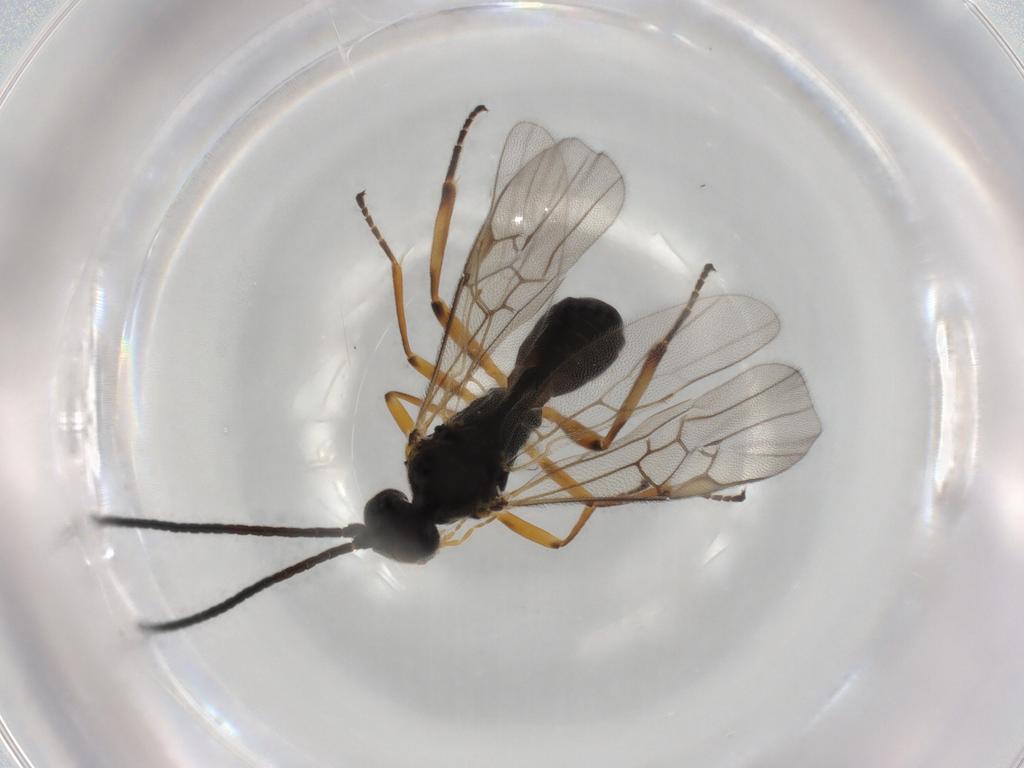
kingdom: Animalia
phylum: Arthropoda
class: Insecta
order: Hymenoptera
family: Braconidae
